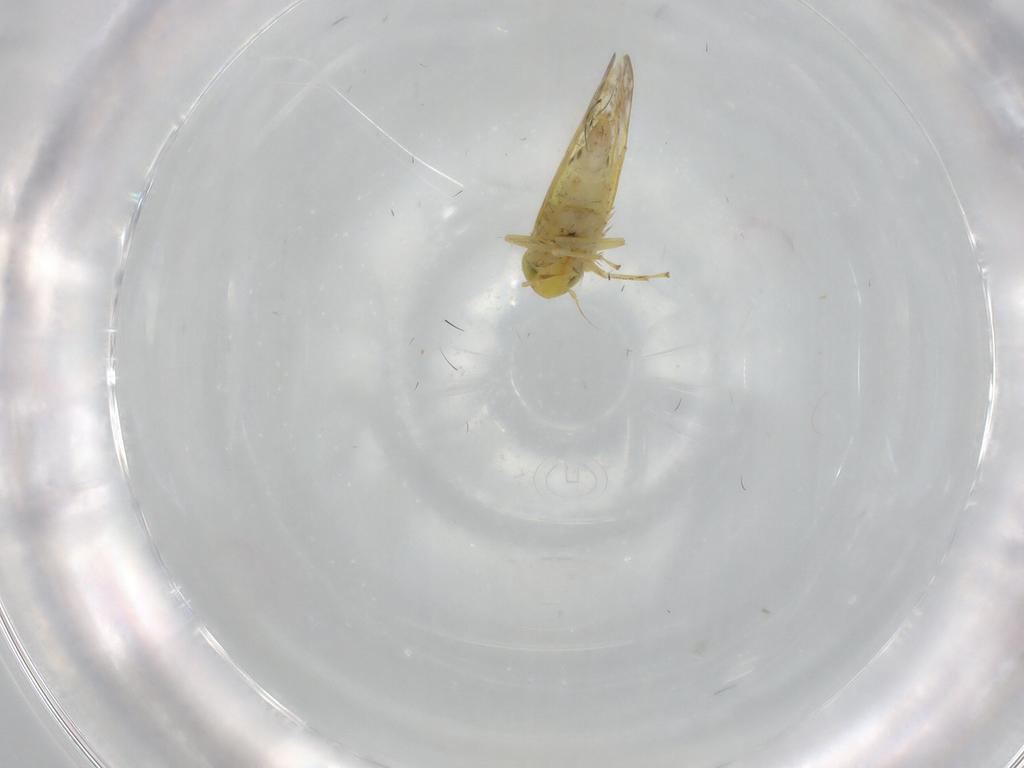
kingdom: Animalia
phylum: Arthropoda
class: Insecta
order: Hemiptera
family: Cicadellidae
